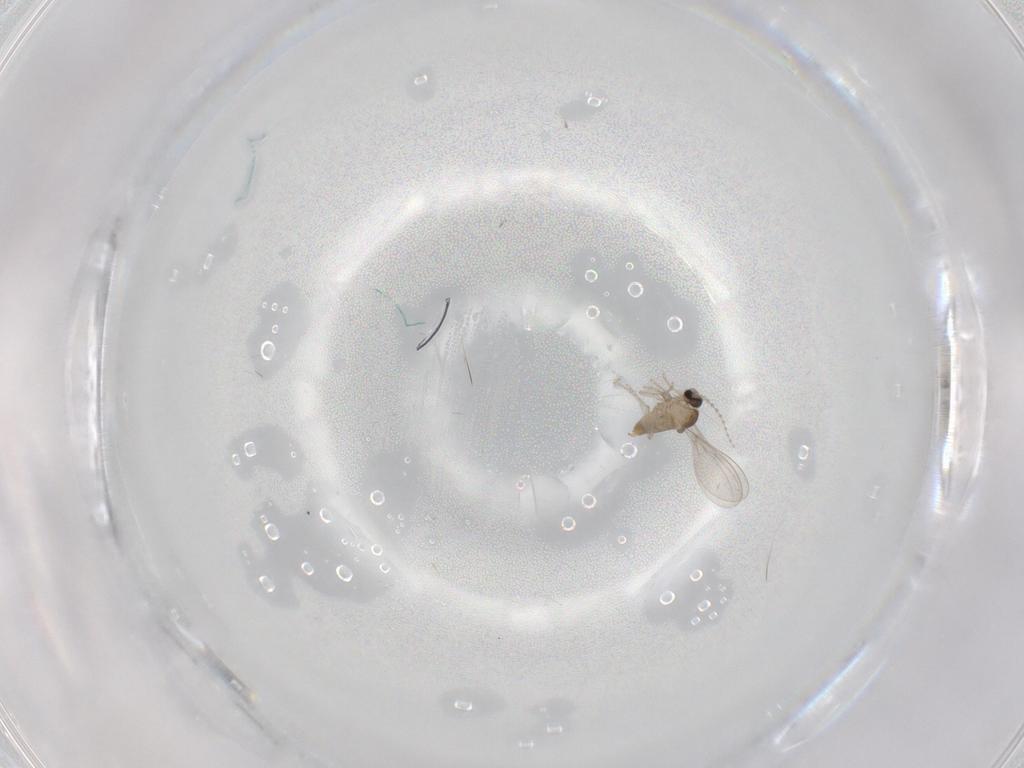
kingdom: Animalia
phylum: Arthropoda
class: Insecta
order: Diptera
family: Cecidomyiidae
